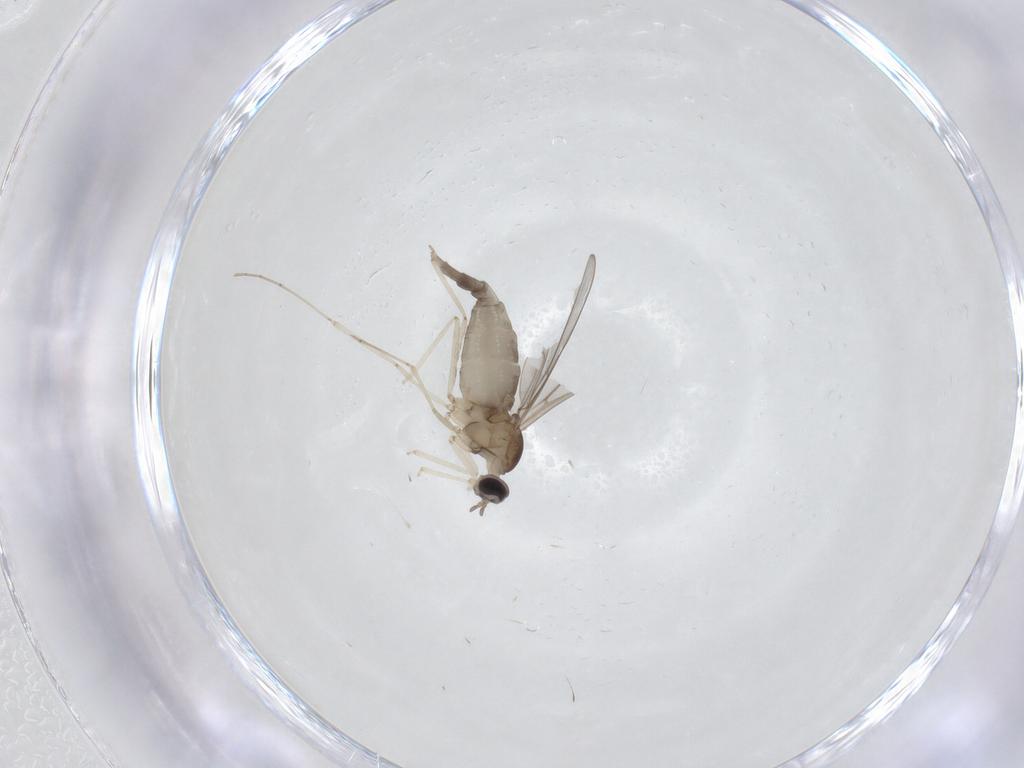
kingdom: Animalia
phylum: Arthropoda
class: Insecta
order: Diptera
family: Cecidomyiidae
